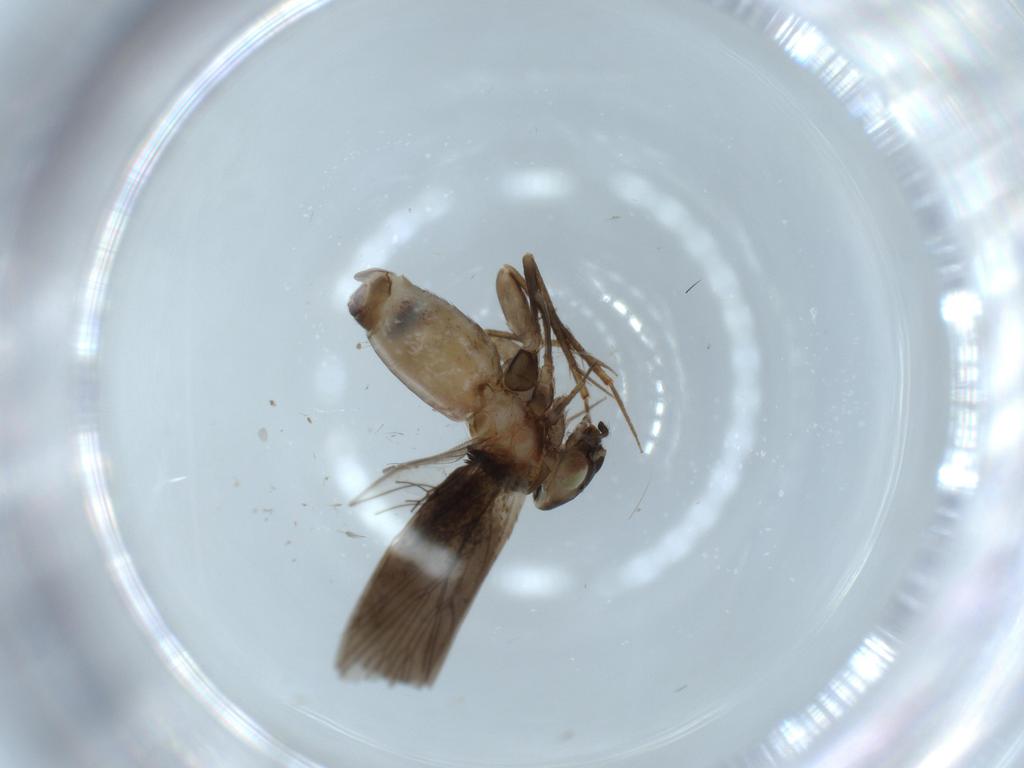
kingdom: Animalia
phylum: Arthropoda
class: Insecta
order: Psocodea
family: Lepidopsocidae
